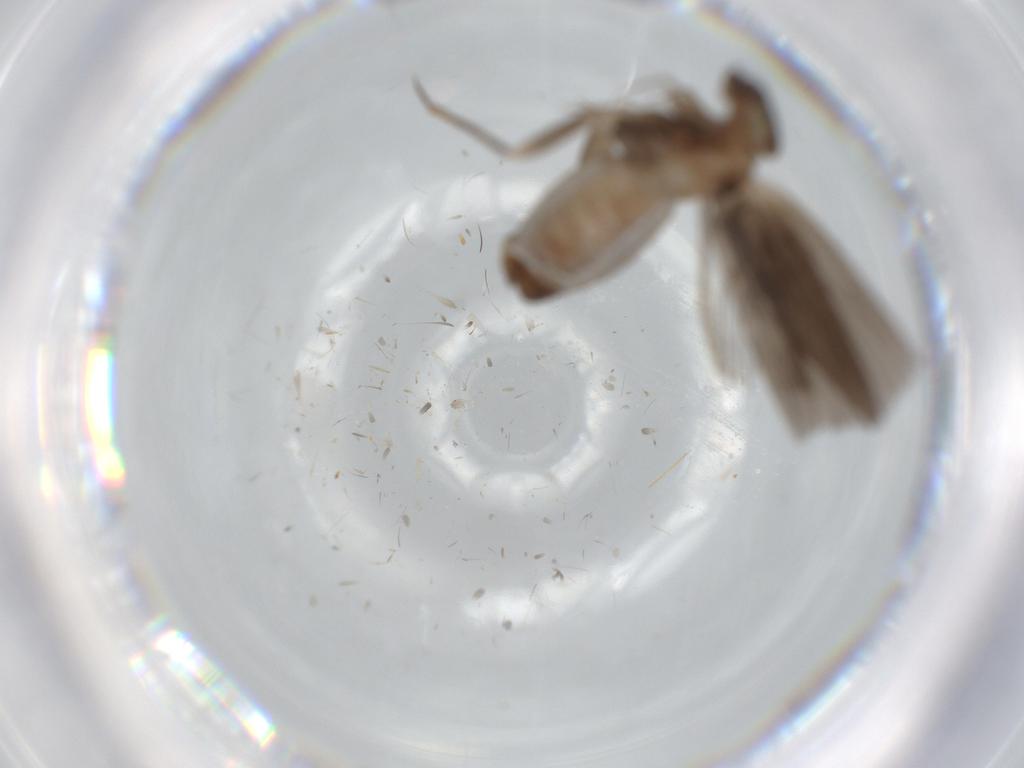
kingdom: Animalia
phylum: Arthropoda
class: Insecta
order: Psocodea
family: Lepidopsocidae
